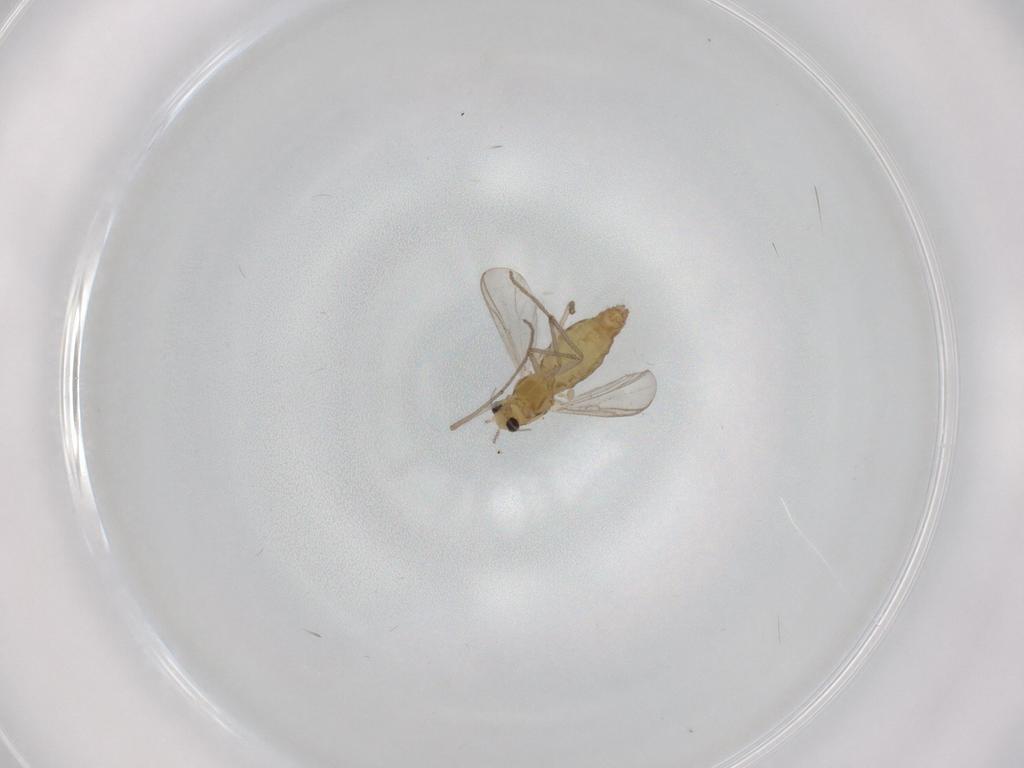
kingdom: Animalia
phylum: Arthropoda
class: Insecta
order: Diptera
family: Chironomidae
